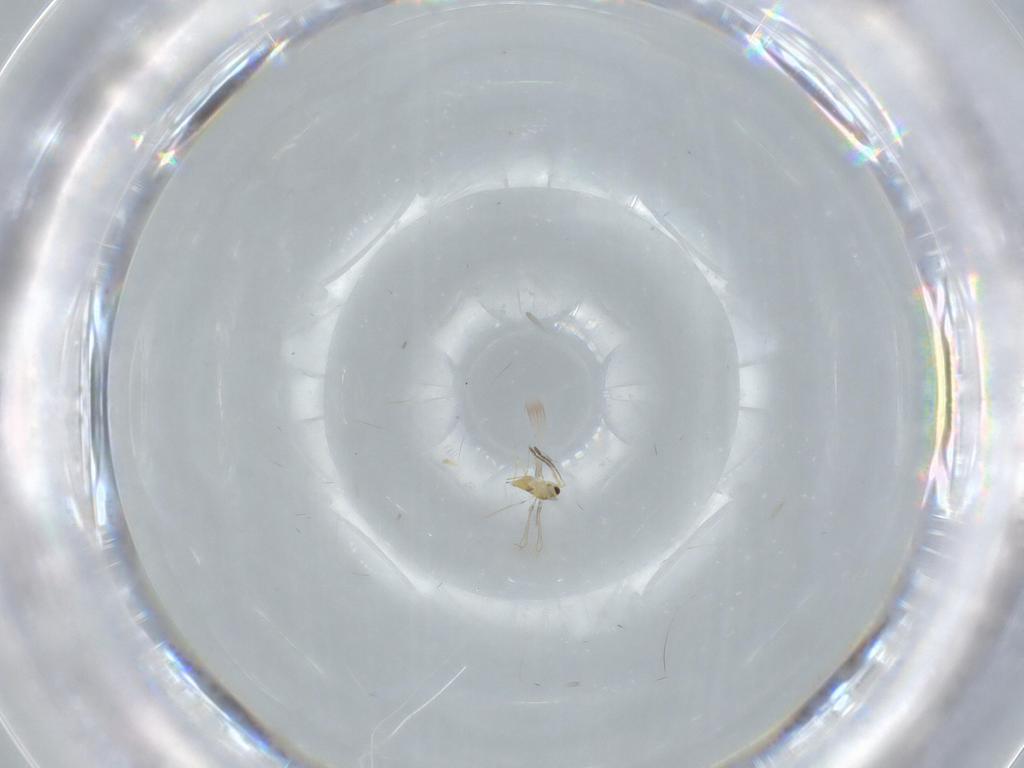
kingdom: Animalia
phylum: Arthropoda
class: Insecta
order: Hymenoptera
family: Mymaridae
